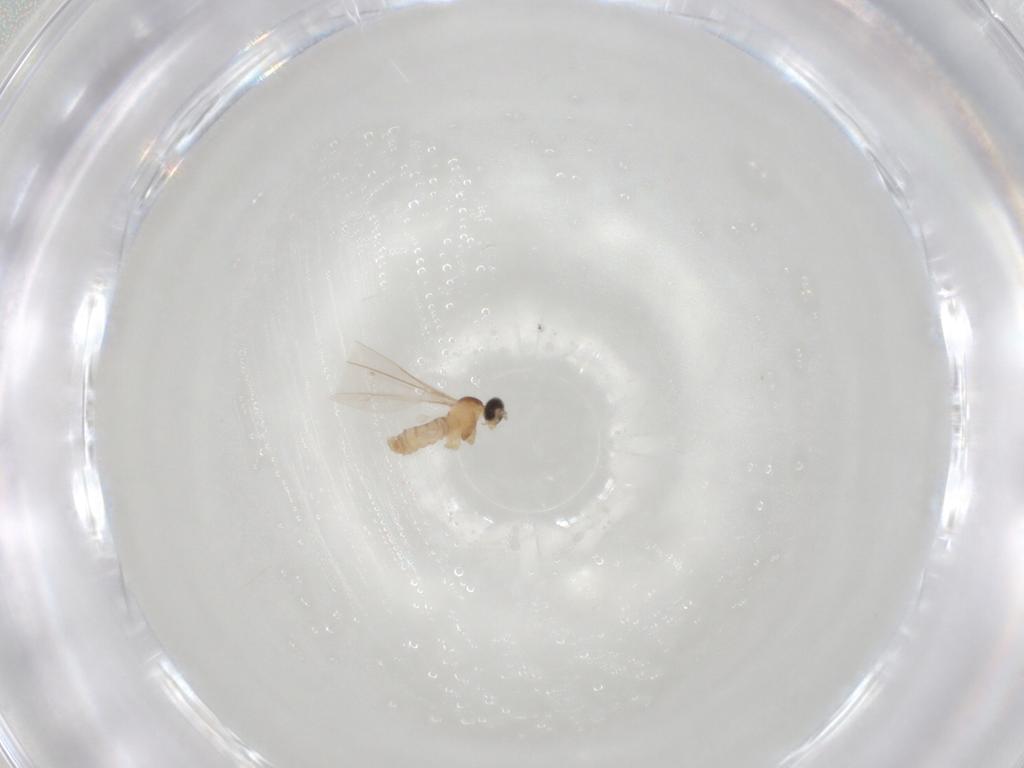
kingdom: Animalia
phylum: Arthropoda
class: Insecta
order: Diptera
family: Cecidomyiidae
